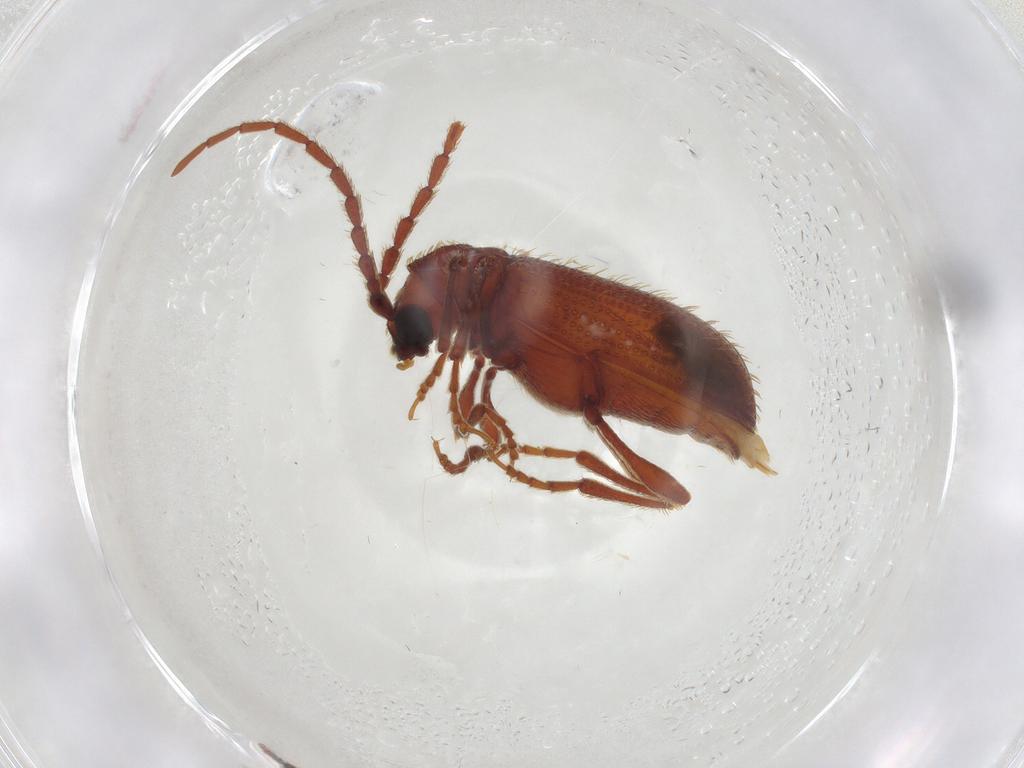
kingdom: Animalia
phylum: Arthropoda
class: Insecta
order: Coleoptera
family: Ptinidae
